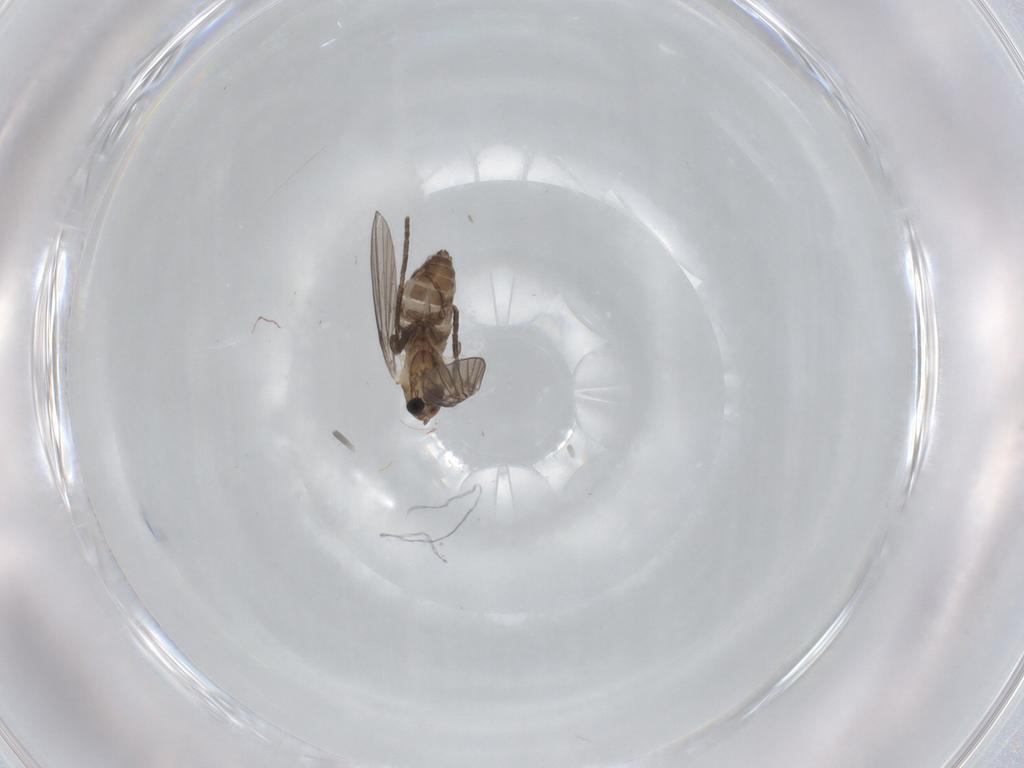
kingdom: Animalia
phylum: Arthropoda
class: Insecta
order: Diptera
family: Psychodidae
